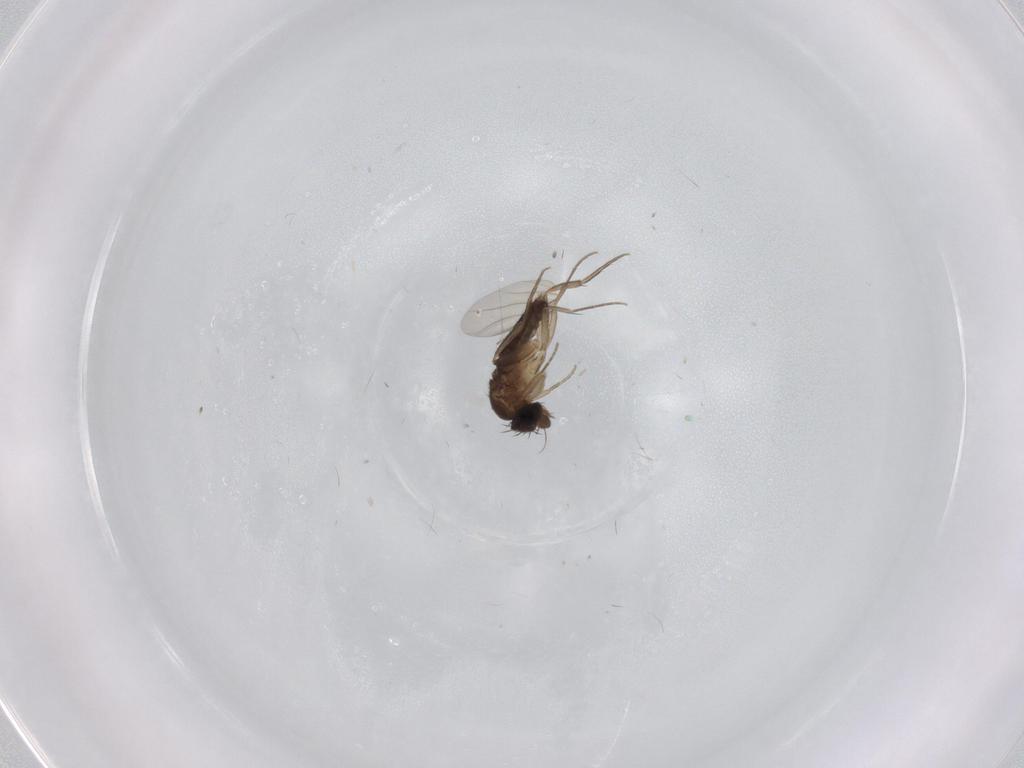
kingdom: Animalia
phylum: Arthropoda
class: Insecta
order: Diptera
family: Phoridae
